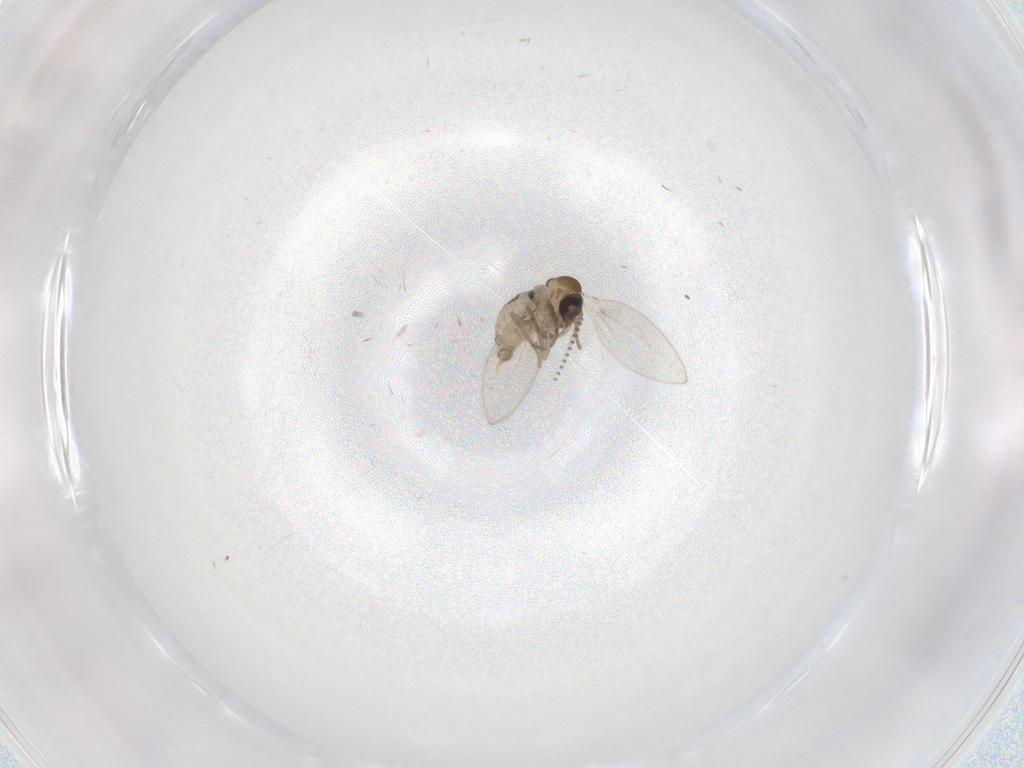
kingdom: Animalia
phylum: Arthropoda
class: Insecta
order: Diptera
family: Psychodidae
